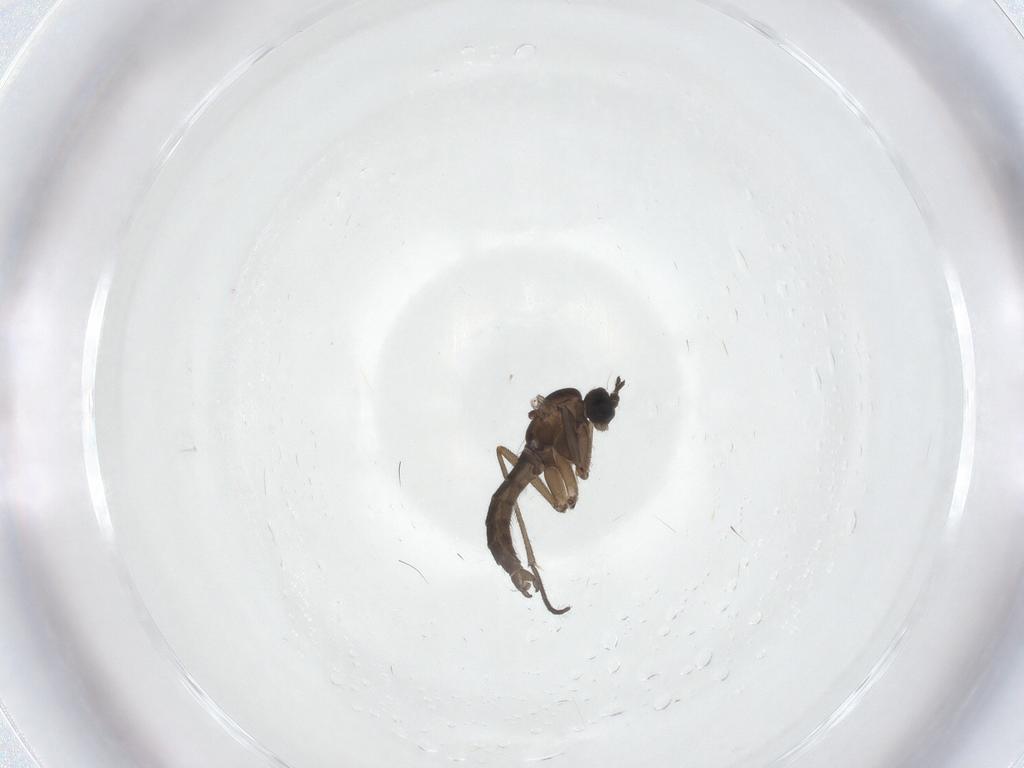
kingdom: Animalia
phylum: Arthropoda
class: Insecta
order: Diptera
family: Sciaridae
